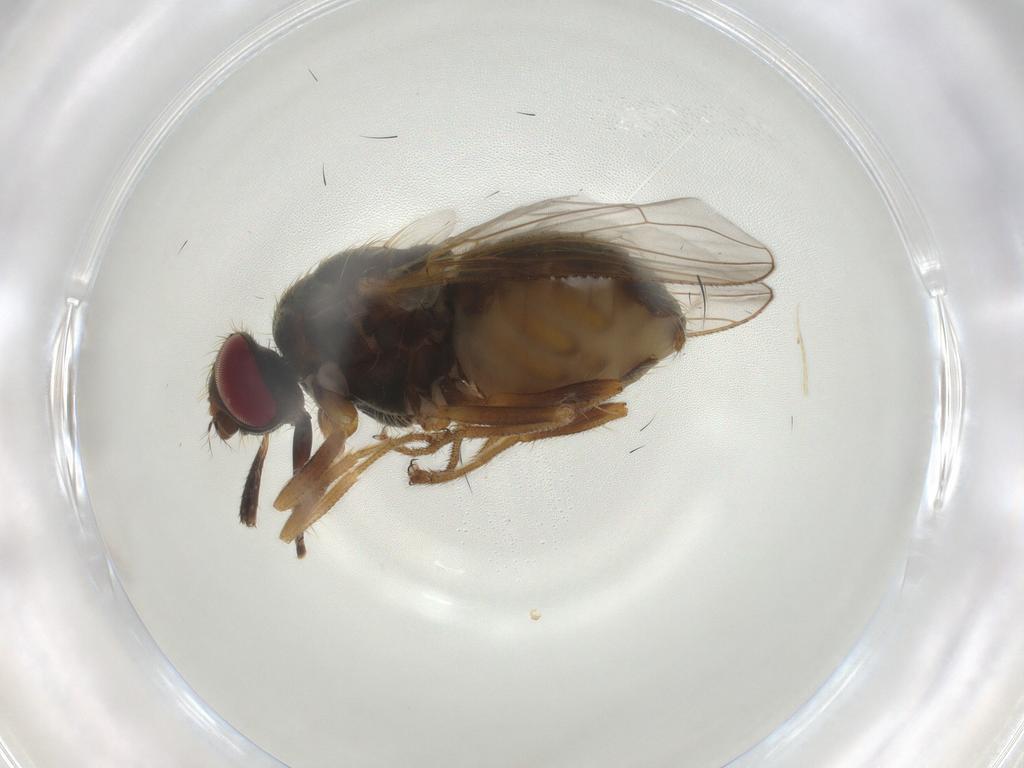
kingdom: Animalia
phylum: Arthropoda
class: Insecta
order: Diptera
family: Muscidae
